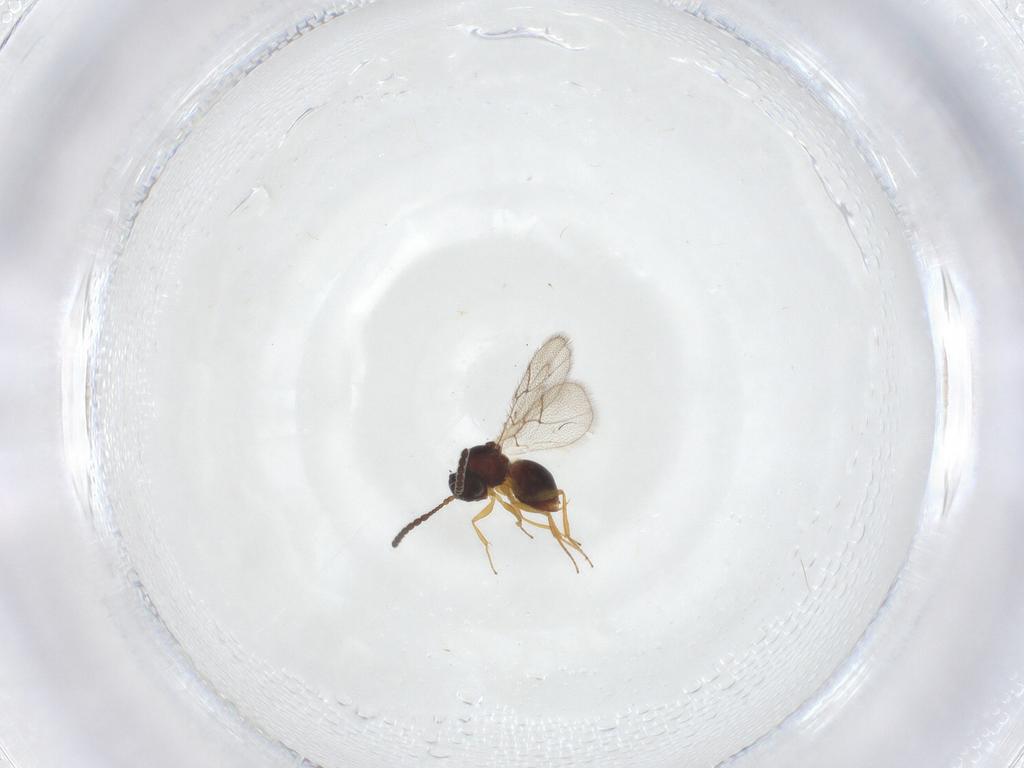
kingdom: Animalia
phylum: Arthropoda
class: Insecta
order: Hymenoptera
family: Figitidae
